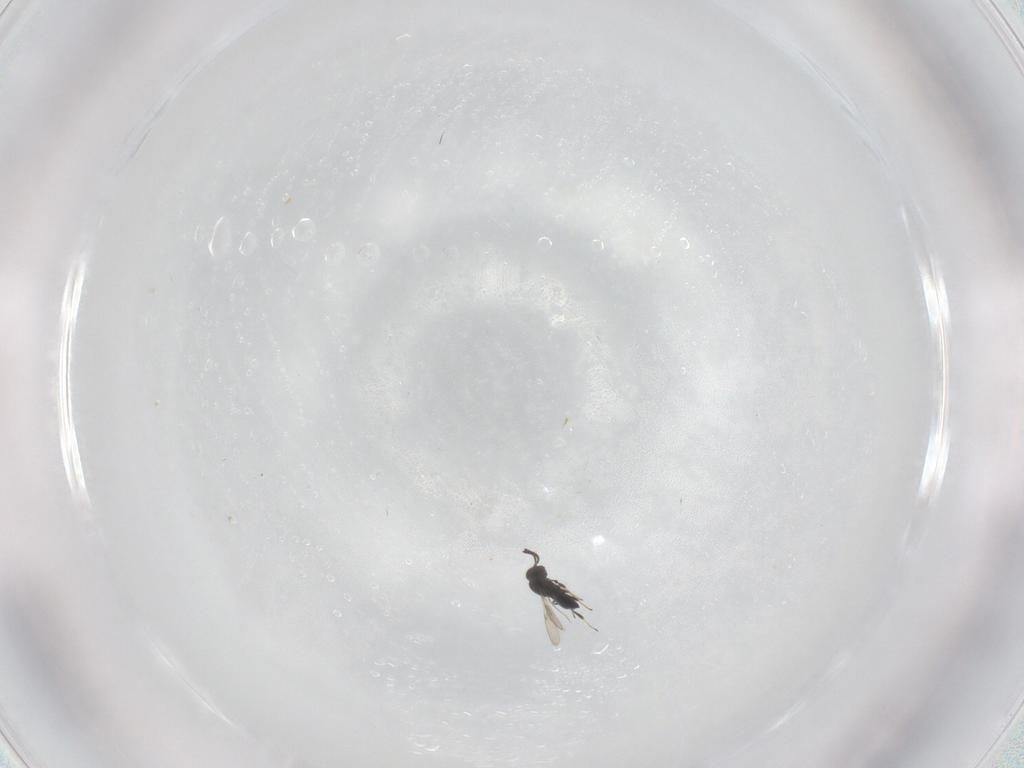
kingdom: Animalia
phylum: Arthropoda
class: Insecta
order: Hymenoptera
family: Scelionidae
